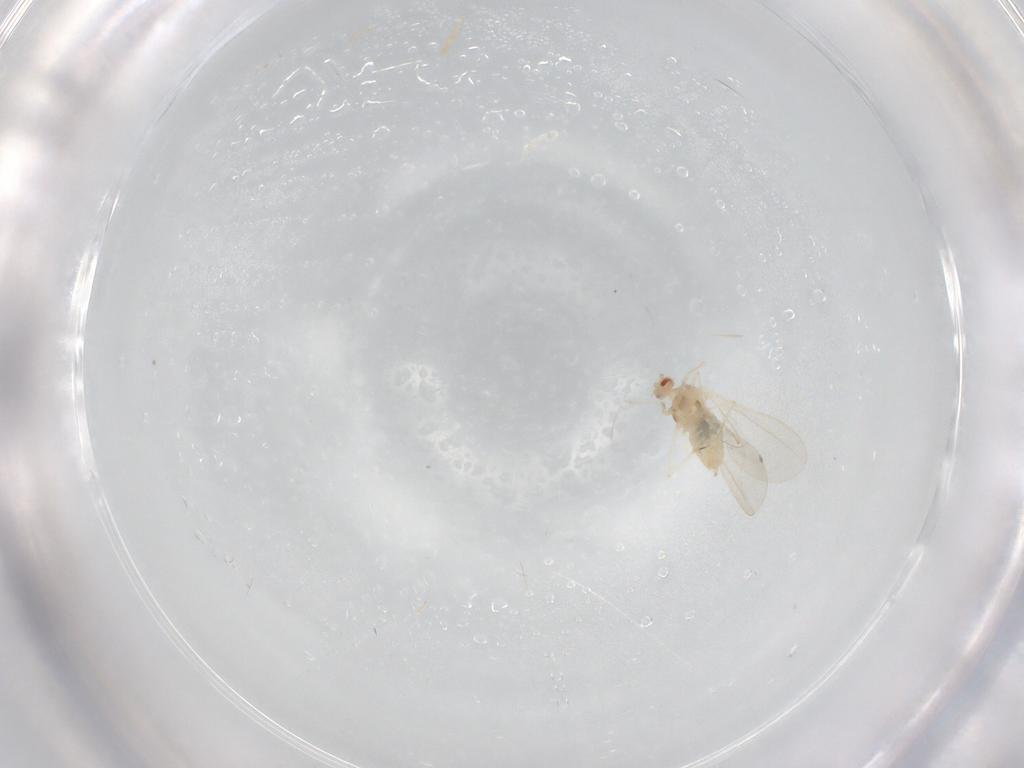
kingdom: Animalia
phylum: Arthropoda
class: Insecta
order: Diptera
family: Cecidomyiidae
